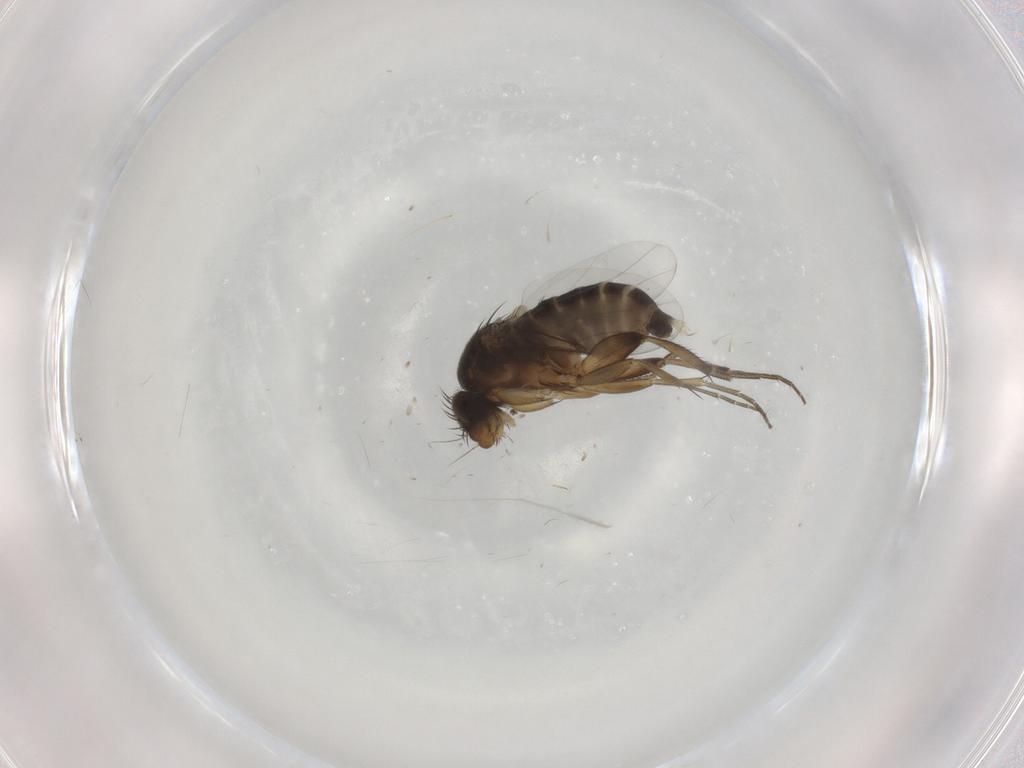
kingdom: Animalia
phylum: Arthropoda
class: Insecta
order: Diptera
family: Phoridae
